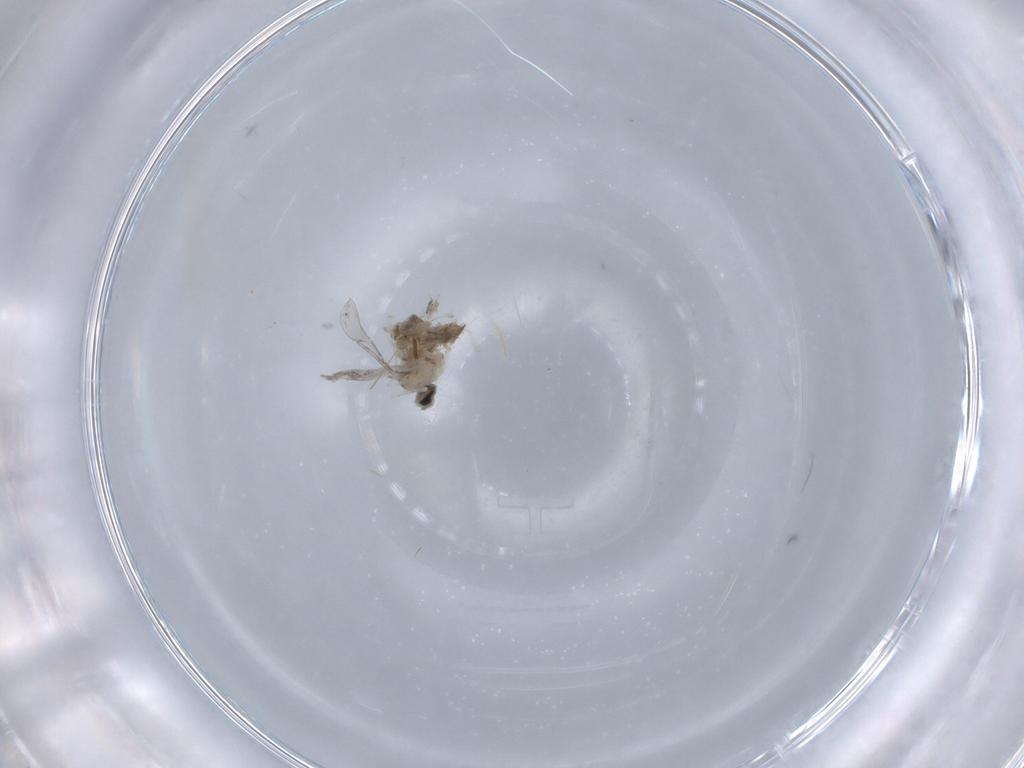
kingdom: Animalia
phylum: Arthropoda
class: Insecta
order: Diptera
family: Chironomidae
